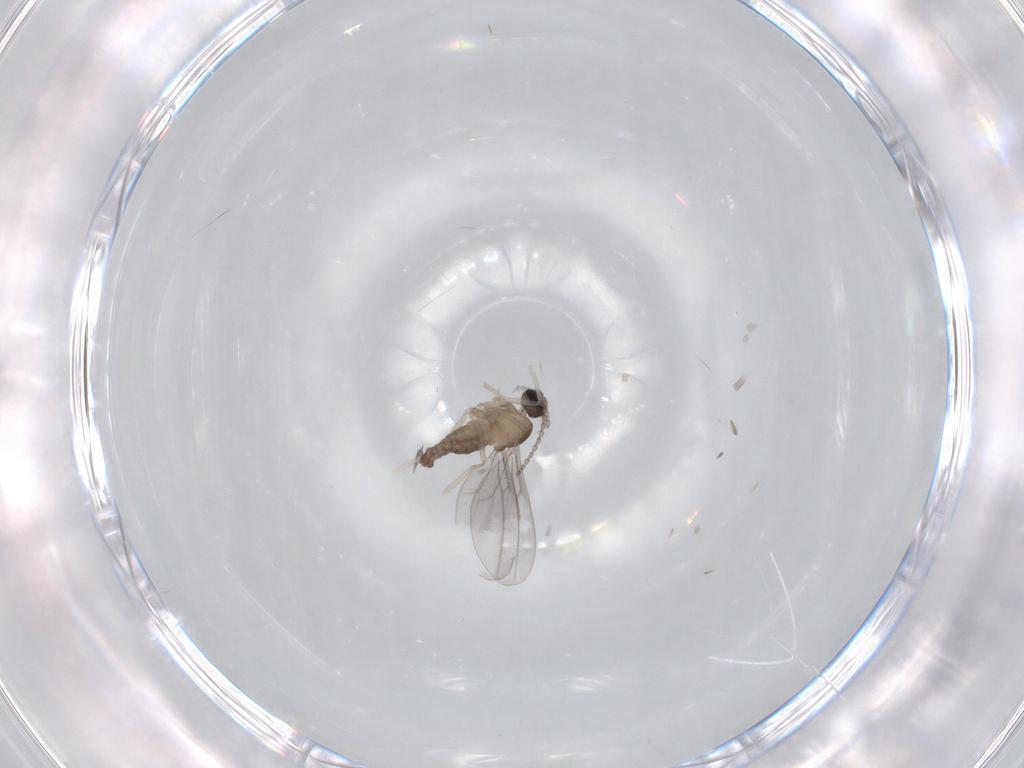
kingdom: Animalia
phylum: Arthropoda
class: Insecta
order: Diptera
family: Cecidomyiidae
